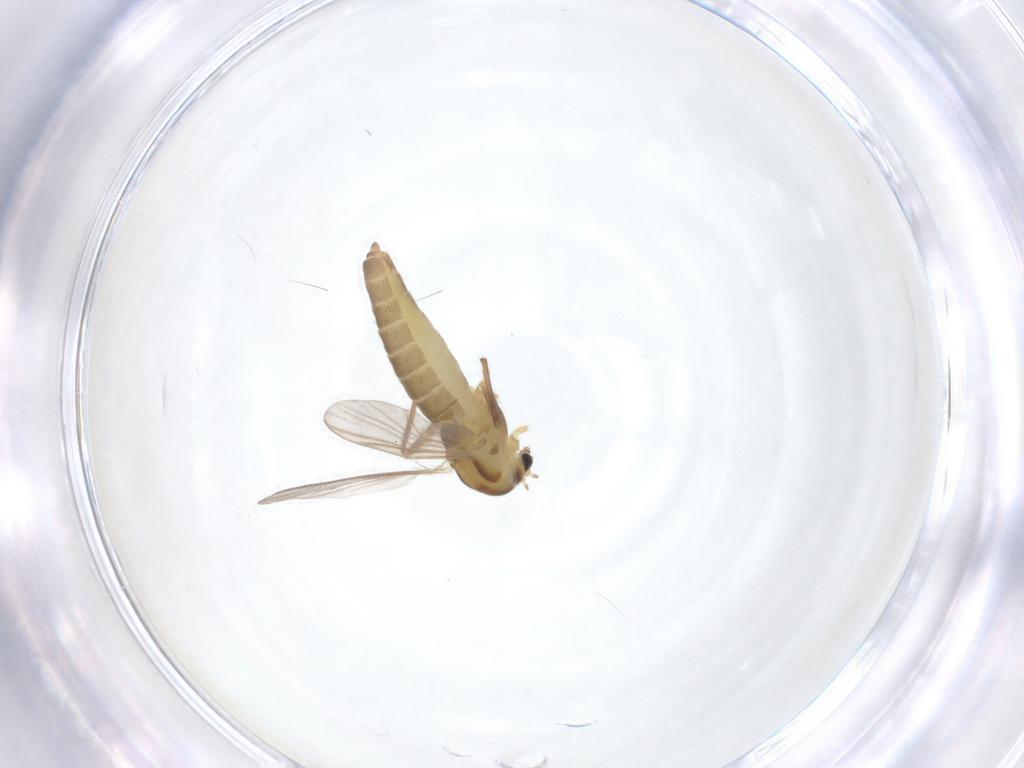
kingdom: Animalia
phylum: Arthropoda
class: Insecta
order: Diptera
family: Chironomidae
